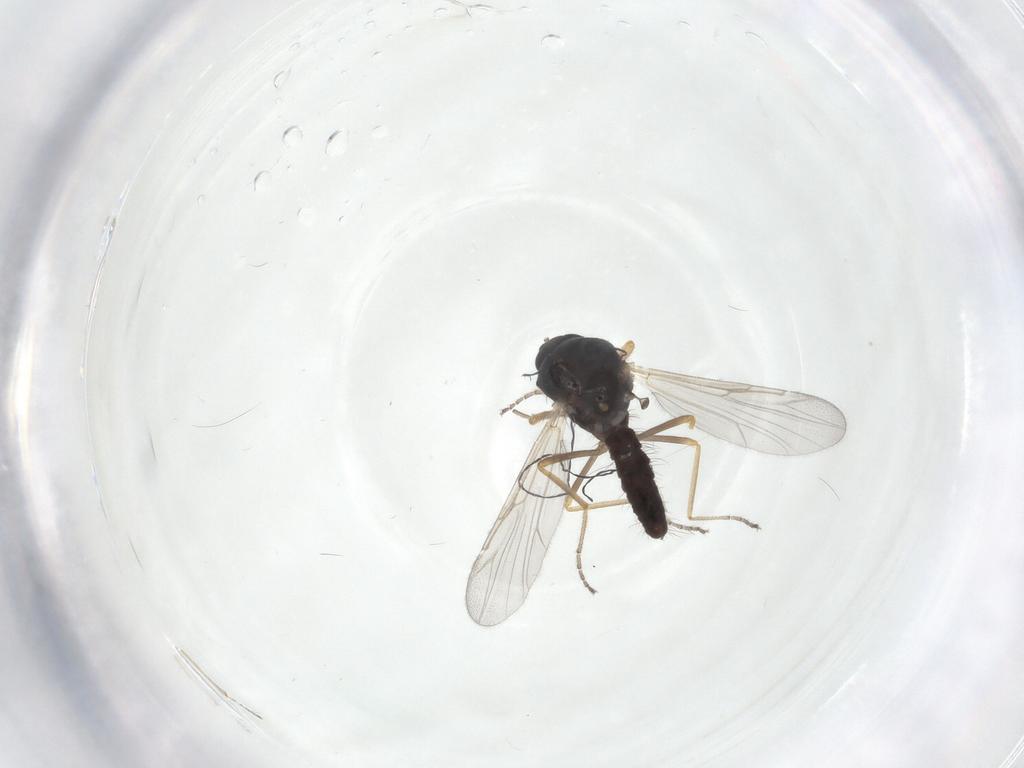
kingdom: Animalia
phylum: Arthropoda
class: Insecta
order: Diptera
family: Ceratopogonidae
